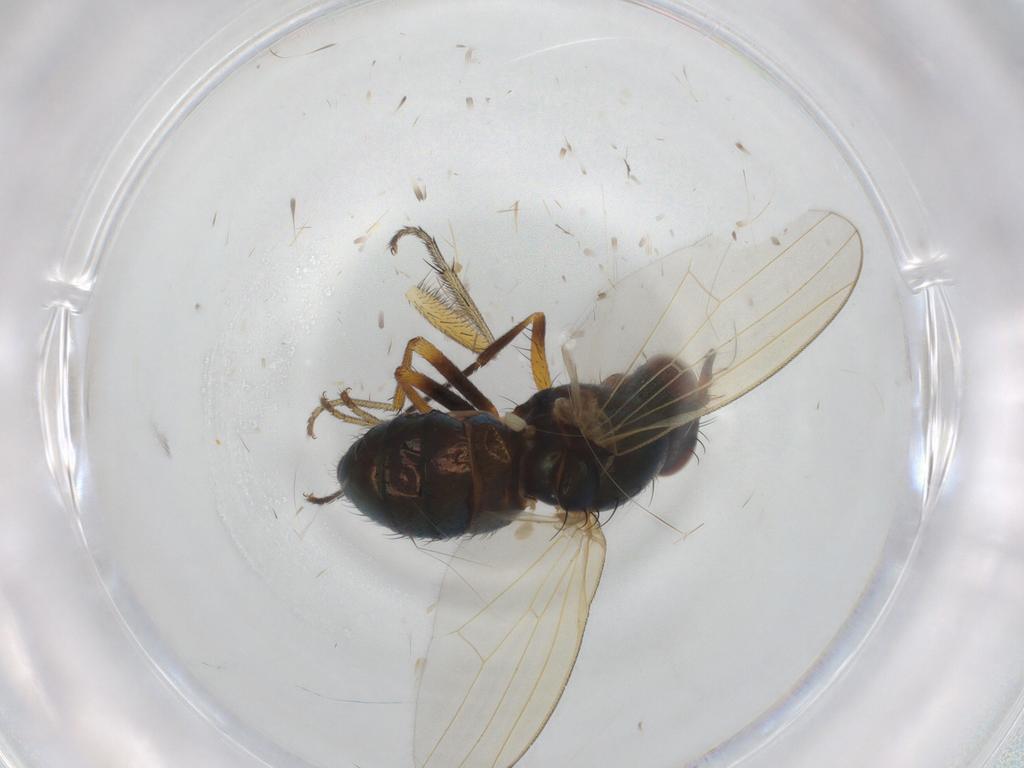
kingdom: Animalia
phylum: Arthropoda
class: Insecta
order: Diptera
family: Lauxaniidae
